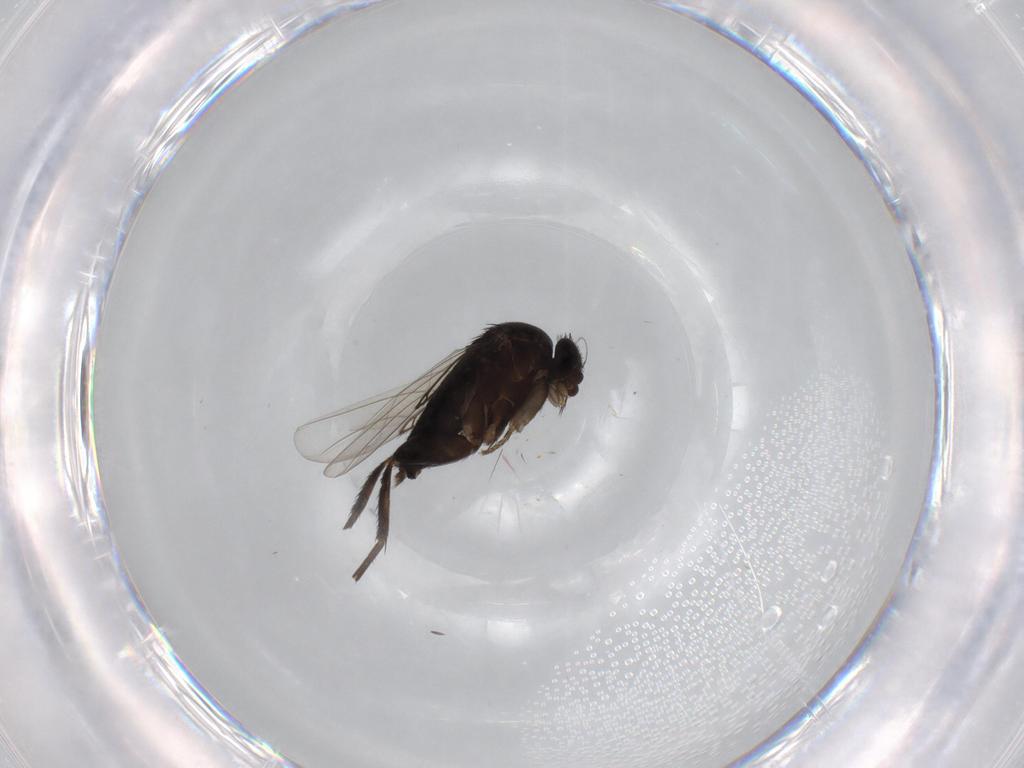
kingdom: Animalia
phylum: Arthropoda
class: Insecta
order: Diptera
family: Phoridae
